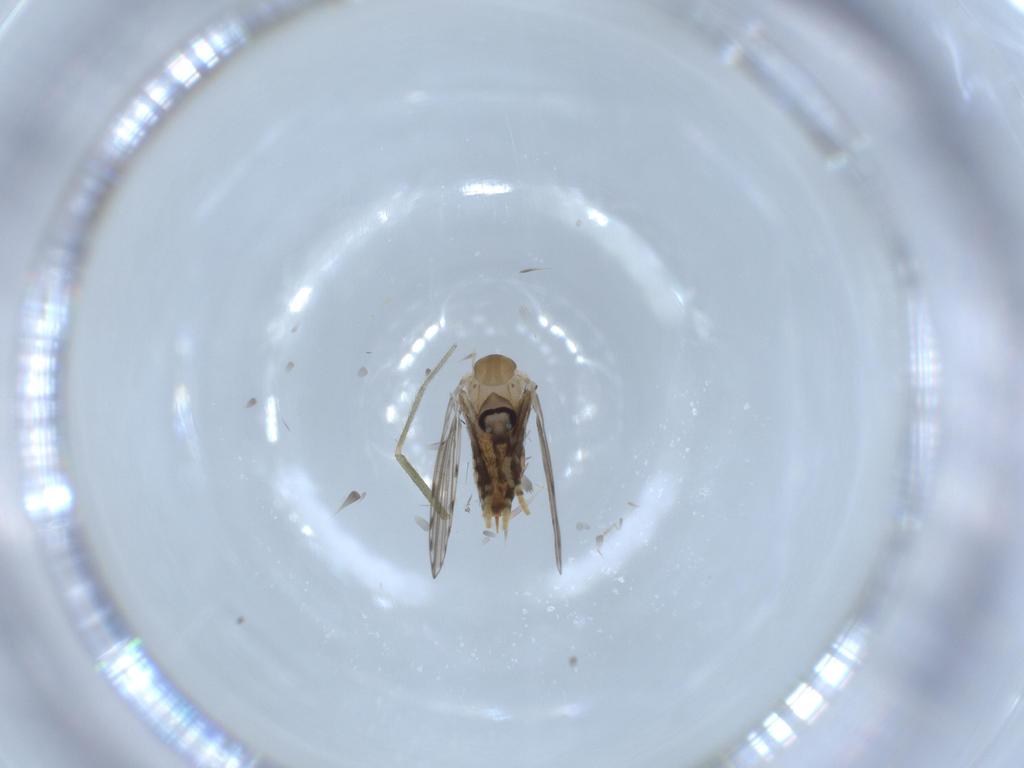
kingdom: Animalia
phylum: Arthropoda
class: Insecta
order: Diptera
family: Psychodidae
